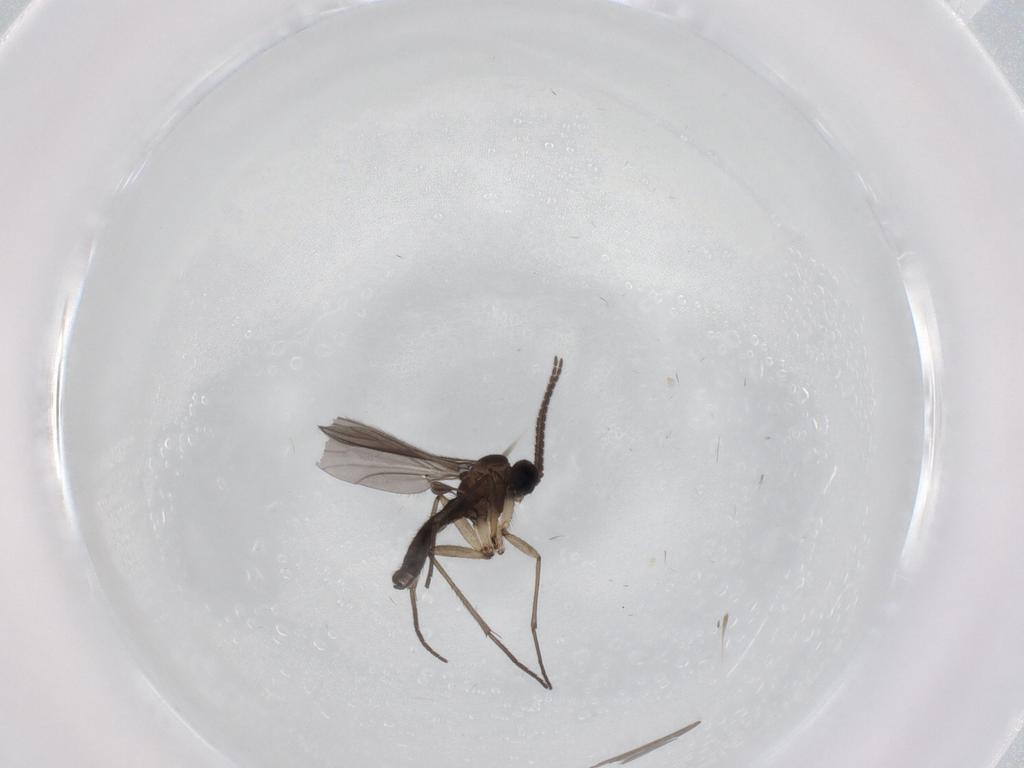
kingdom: Animalia
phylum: Arthropoda
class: Insecta
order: Diptera
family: Cecidomyiidae
